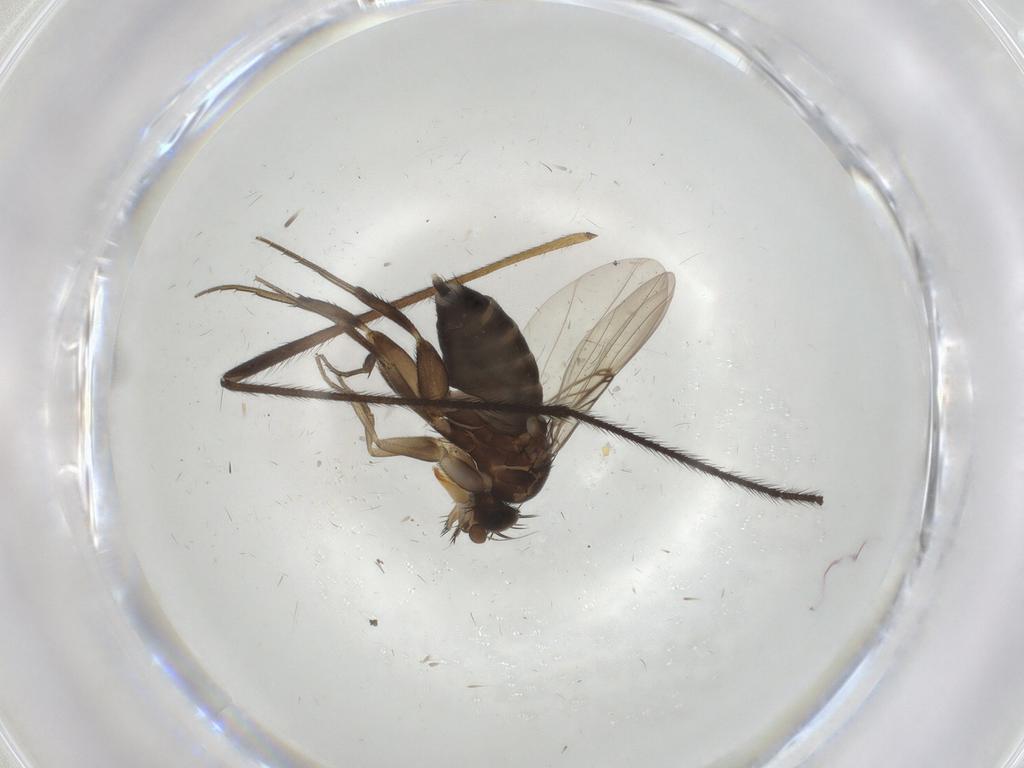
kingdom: Animalia
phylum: Arthropoda
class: Insecta
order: Diptera
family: Phoridae
